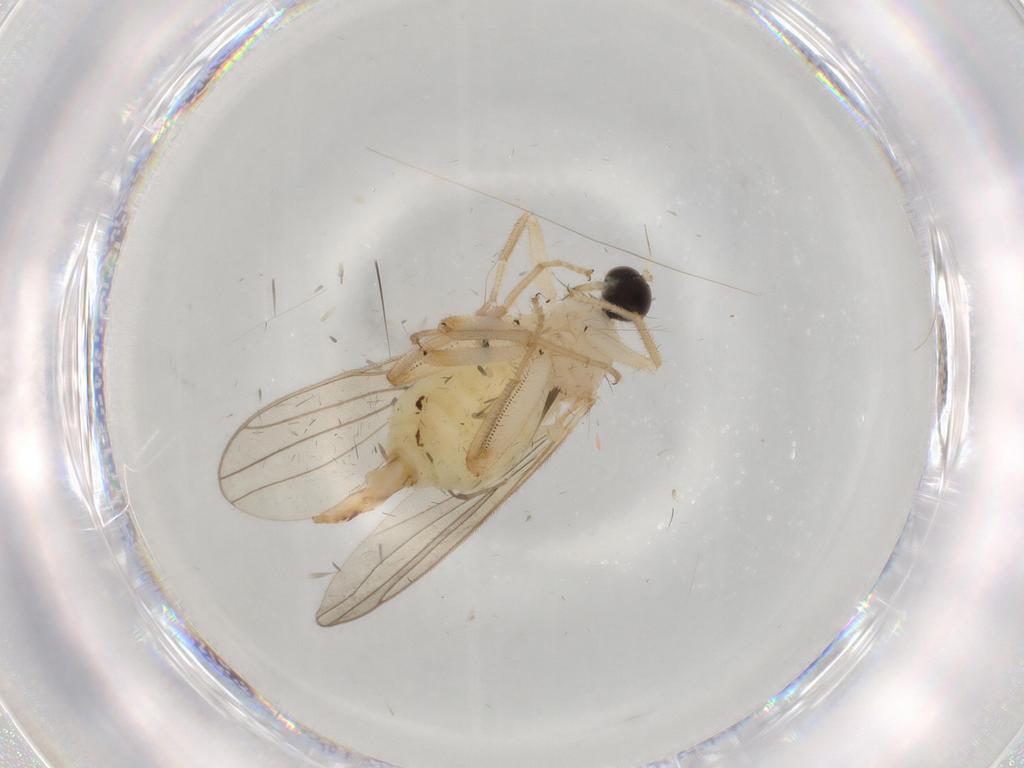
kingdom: Animalia
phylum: Arthropoda
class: Insecta
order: Diptera
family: Hybotidae
